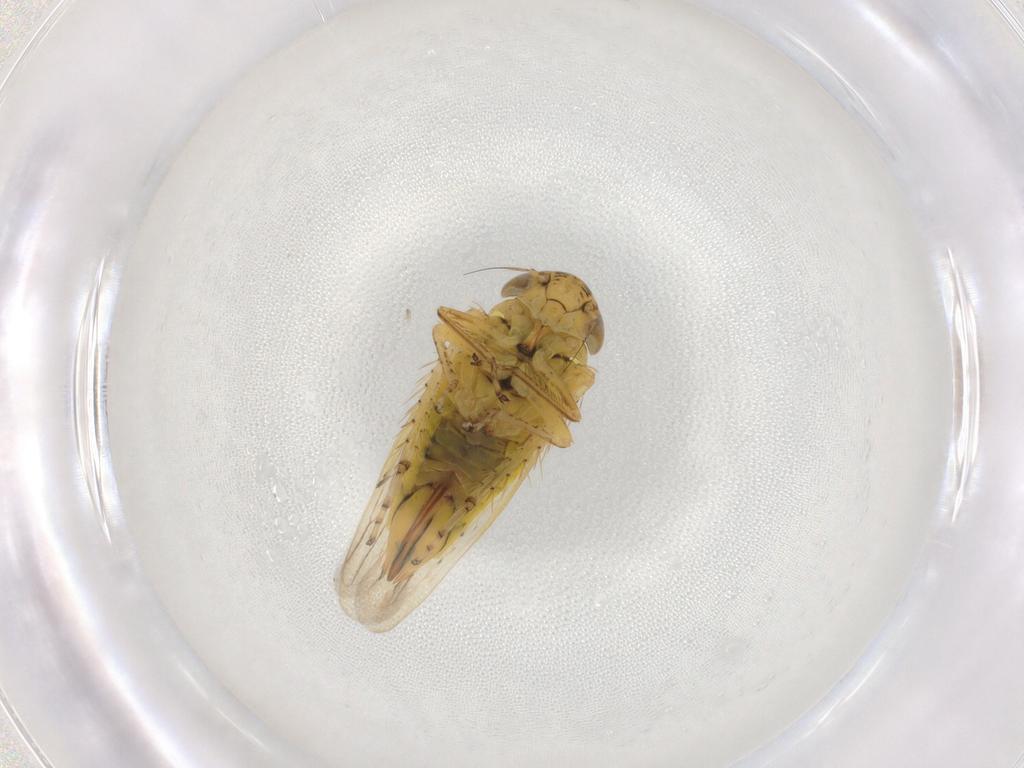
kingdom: Animalia
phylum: Arthropoda
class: Insecta
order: Hemiptera
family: Cicadellidae
